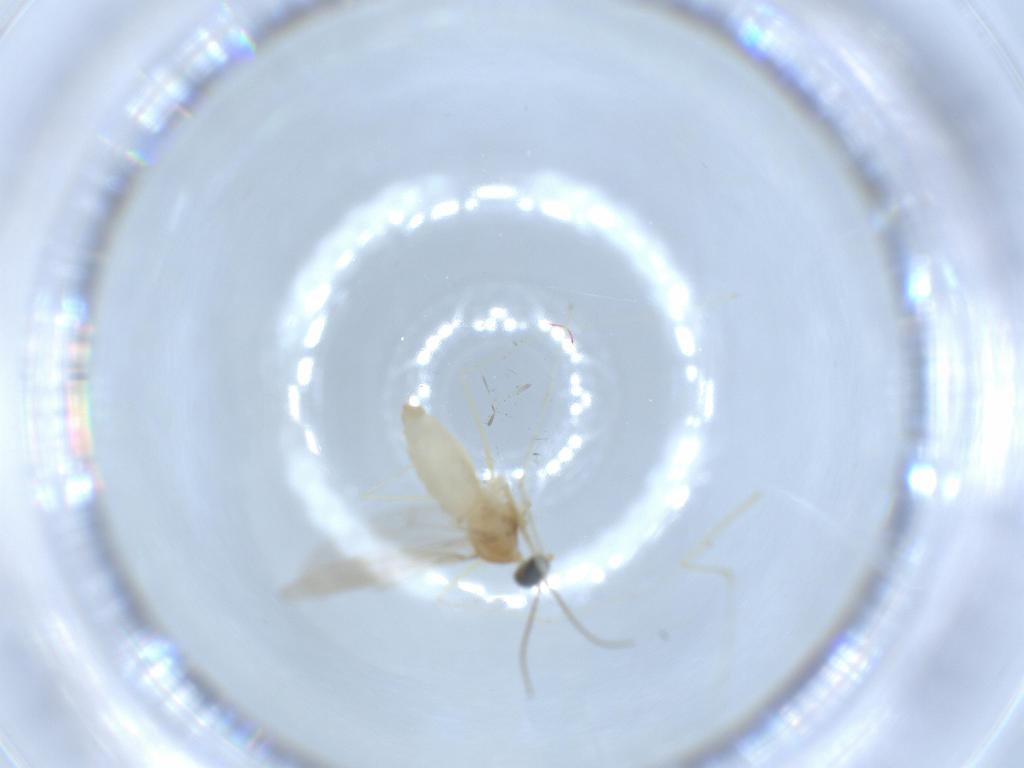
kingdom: Animalia
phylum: Arthropoda
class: Insecta
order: Diptera
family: Cecidomyiidae
